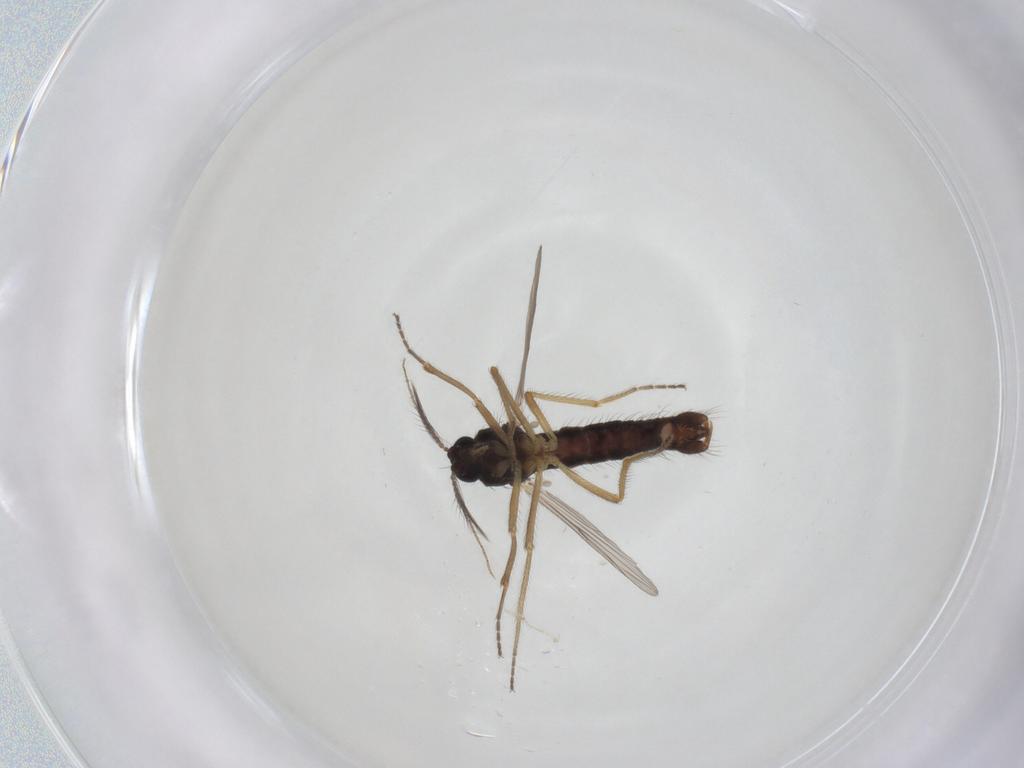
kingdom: Animalia
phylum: Arthropoda
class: Insecta
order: Diptera
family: Ceratopogonidae
